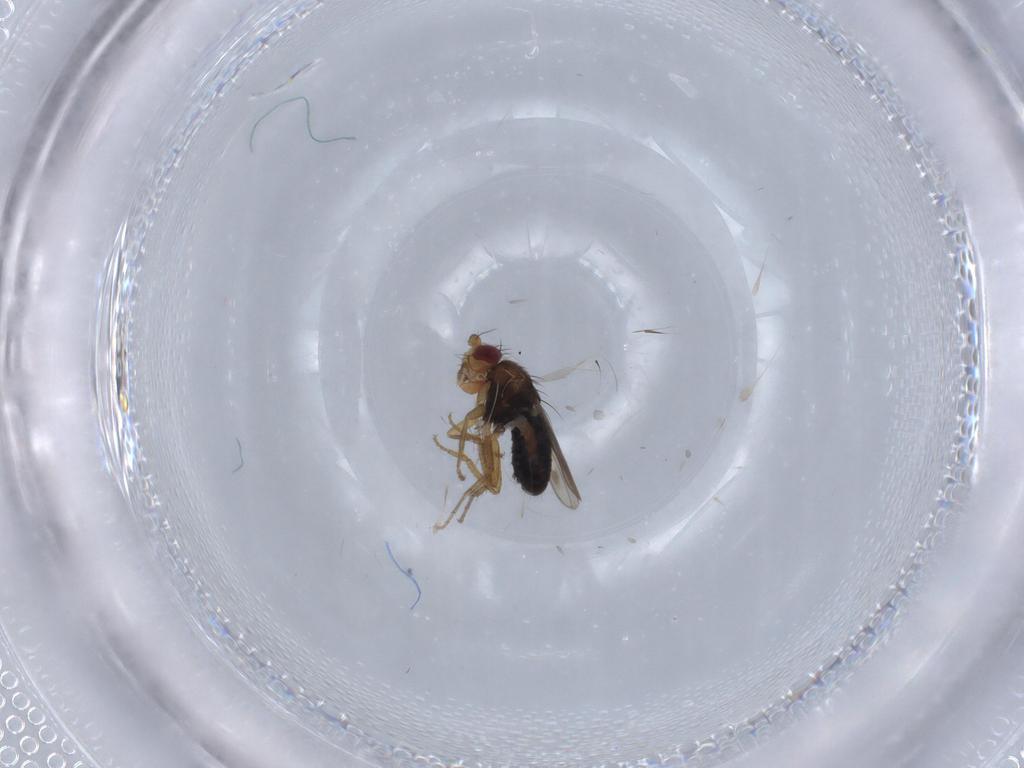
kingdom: Animalia
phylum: Arthropoda
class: Insecta
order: Diptera
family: Sphaeroceridae
